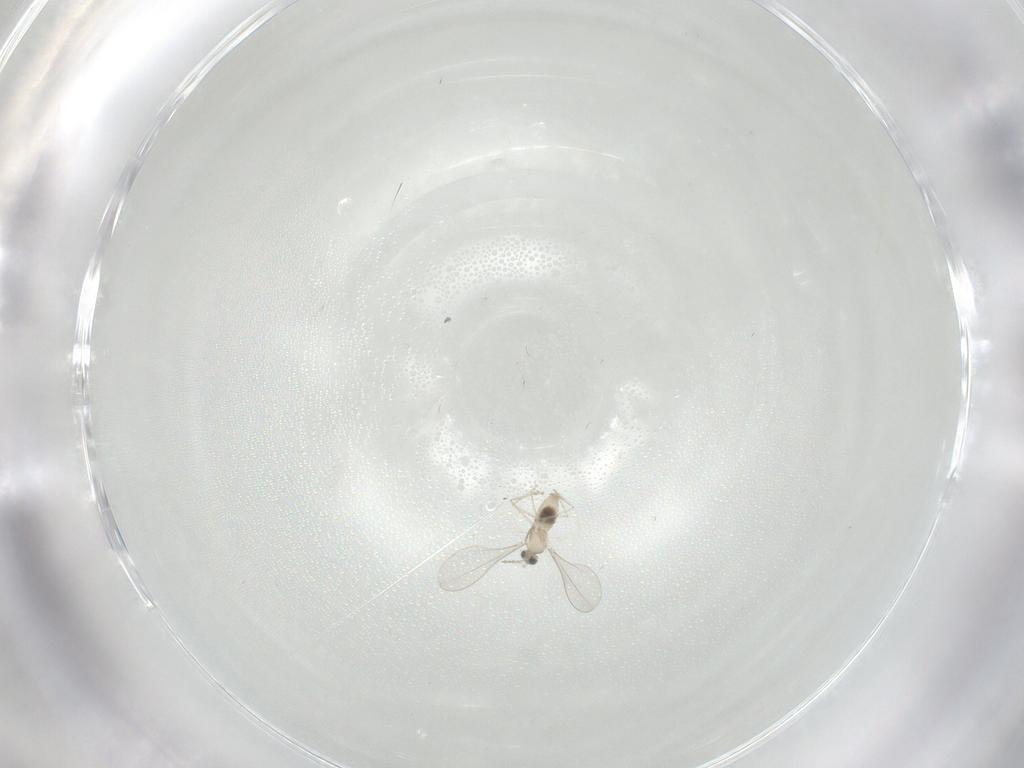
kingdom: Animalia
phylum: Arthropoda
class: Insecta
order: Diptera
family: Cecidomyiidae
